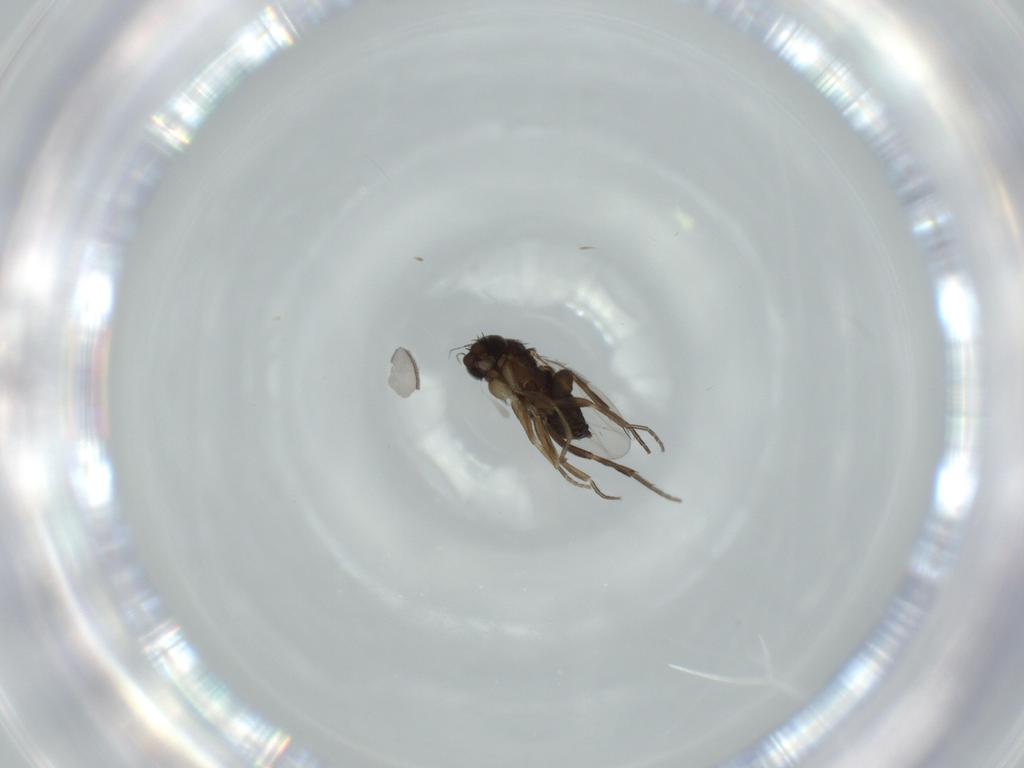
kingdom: Animalia
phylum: Arthropoda
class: Insecta
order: Diptera
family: Phoridae
